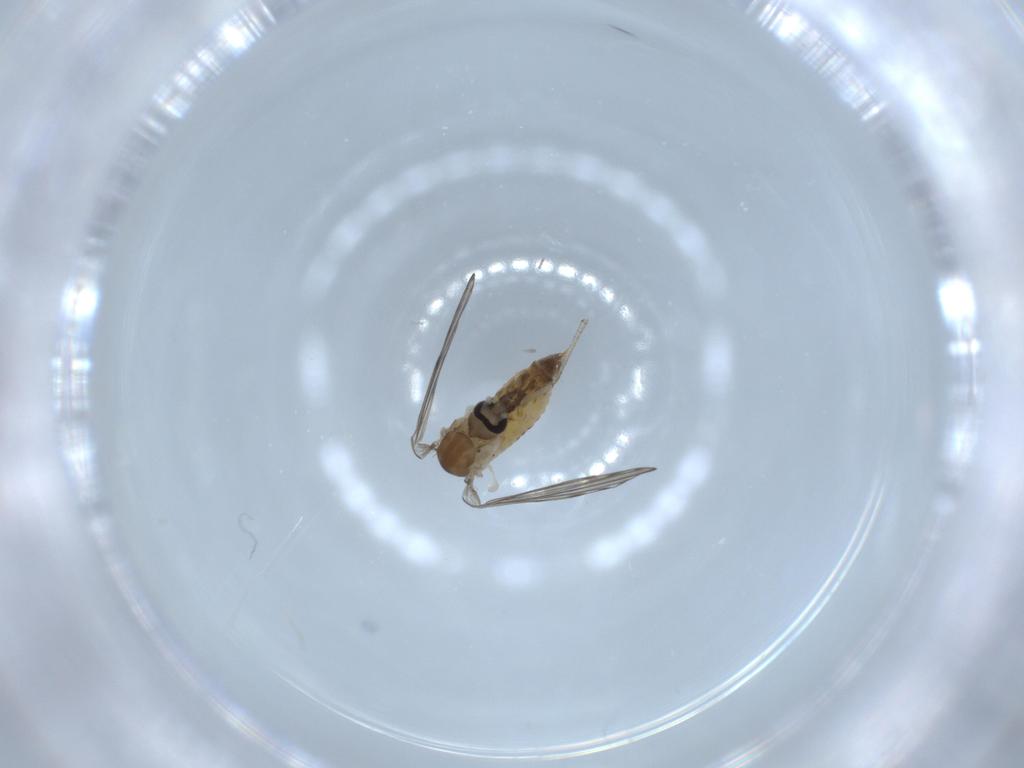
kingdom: Animalia
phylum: Arthropoda
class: Insecta
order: Diptera
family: Psychodidae
